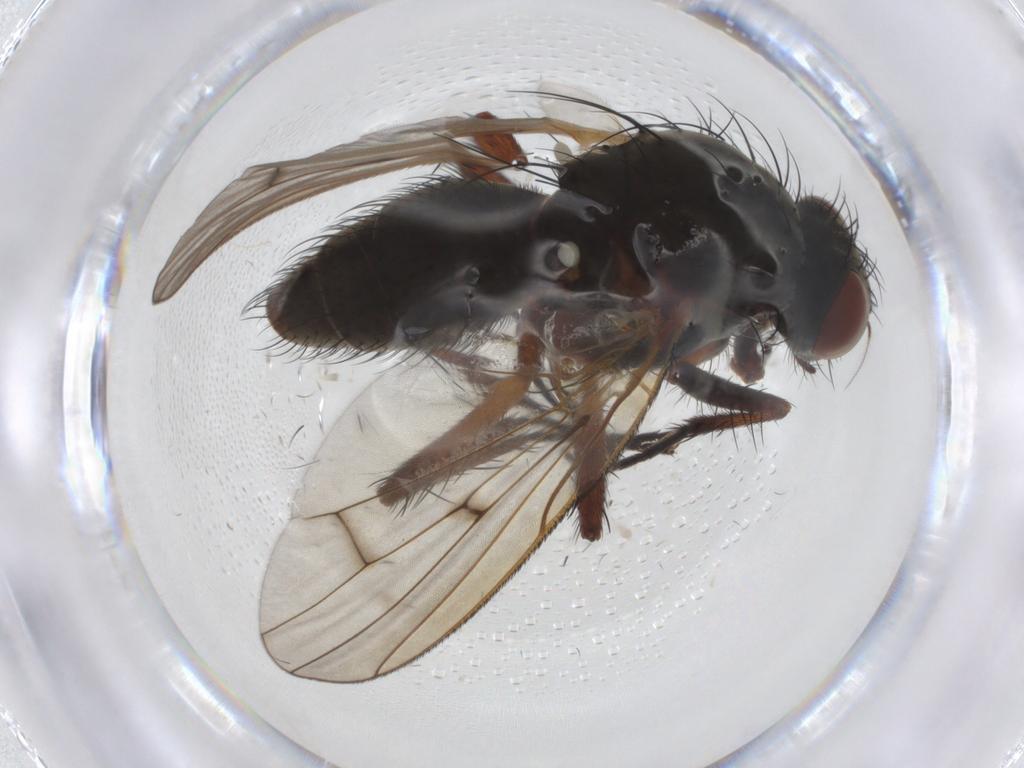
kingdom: Animalia
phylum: Arthropoda
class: Insecta
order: Diptera
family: Anthomyiidae
